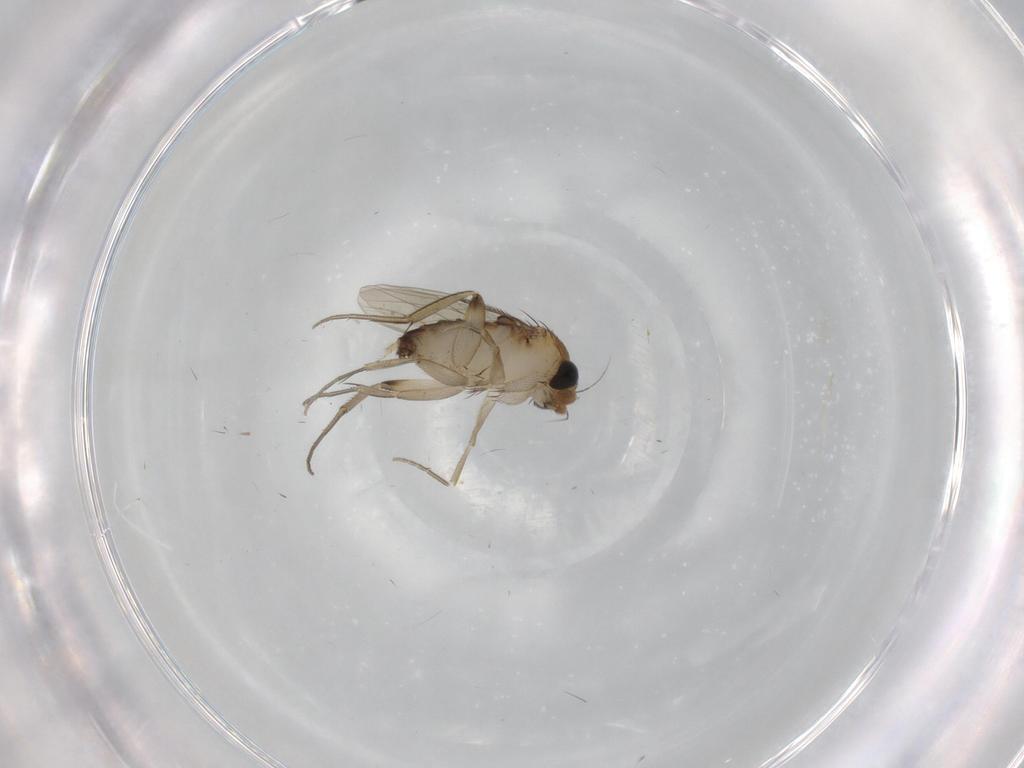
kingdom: Animalia
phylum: Arthropoda
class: Insecta
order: Diptera
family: Phoridae
